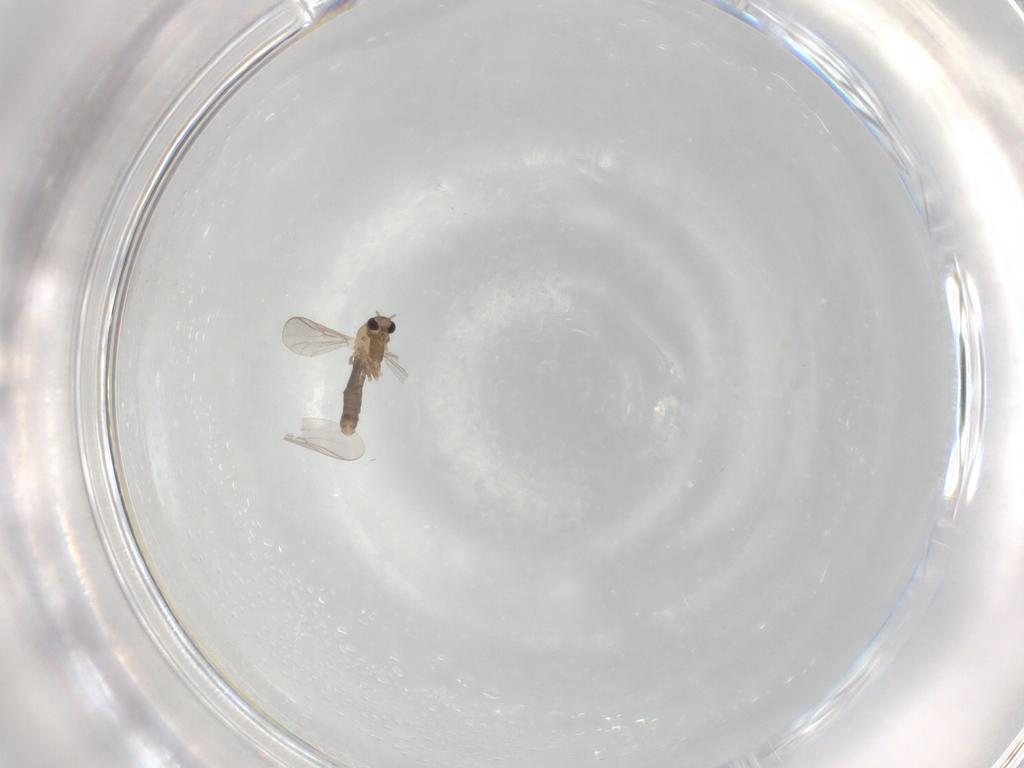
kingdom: Animalia
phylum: Arthropoda
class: Insecta
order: Diptera
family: Chironomidae
